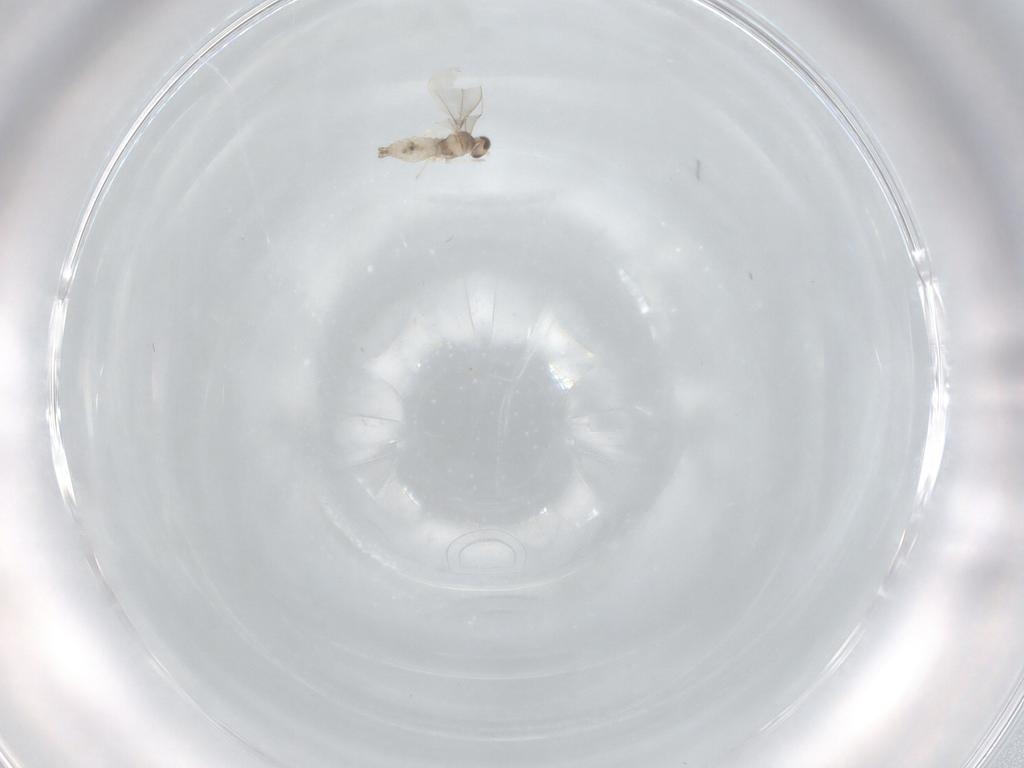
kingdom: Animalia
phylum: Arthropoda
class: Insecta
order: Diptera
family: Cecidomyiidae
